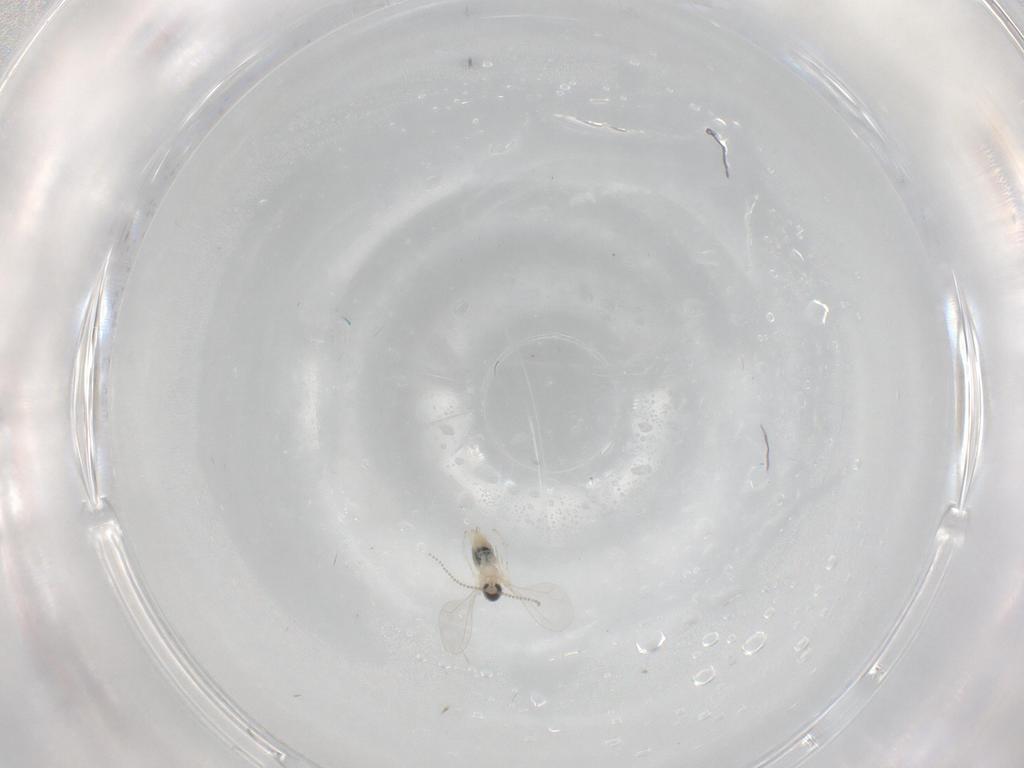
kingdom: Animalia
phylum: Arthropoda
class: Insecta
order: Diptera
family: Cecidomyiidae
